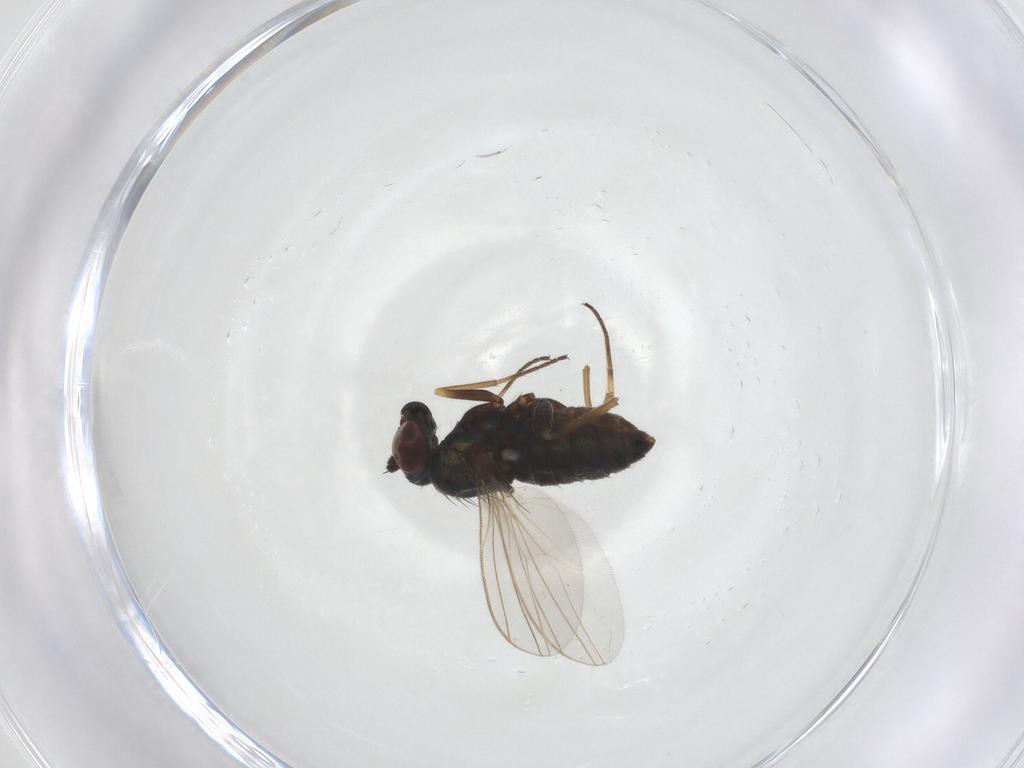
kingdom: Animalia
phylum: Arthropoda
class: Insecta
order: Diptera
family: Dolichopodidae
